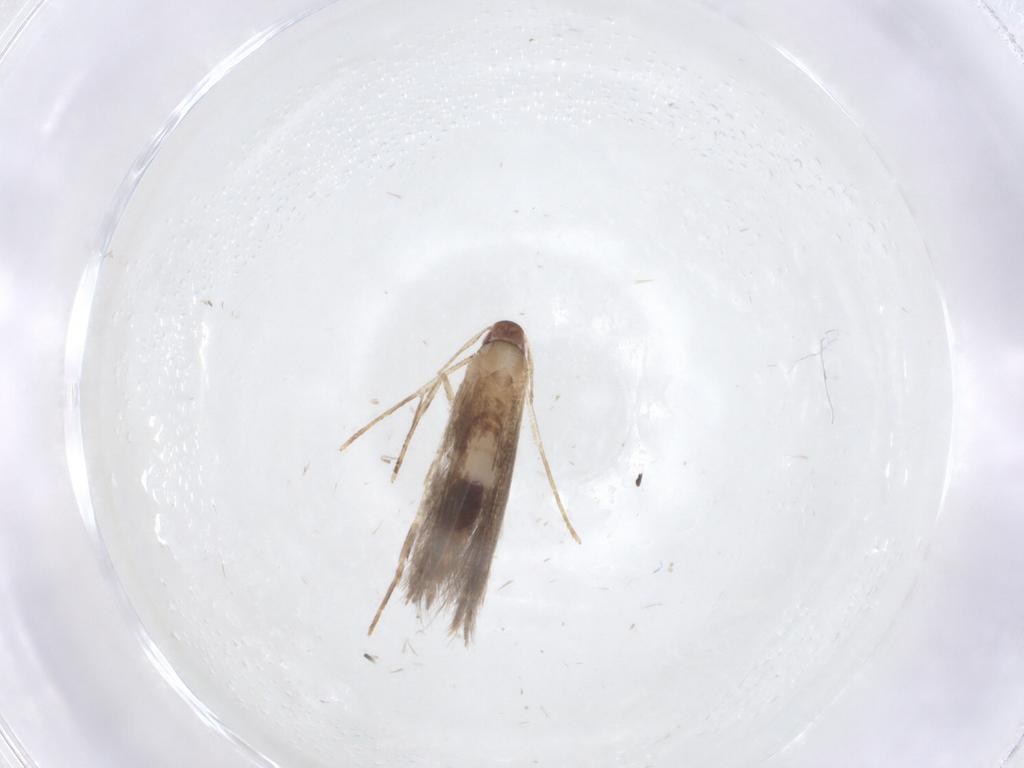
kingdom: Animalia
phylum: Arthropoda
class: Insecta
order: Lepidoptera
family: Cosmopterigidae
